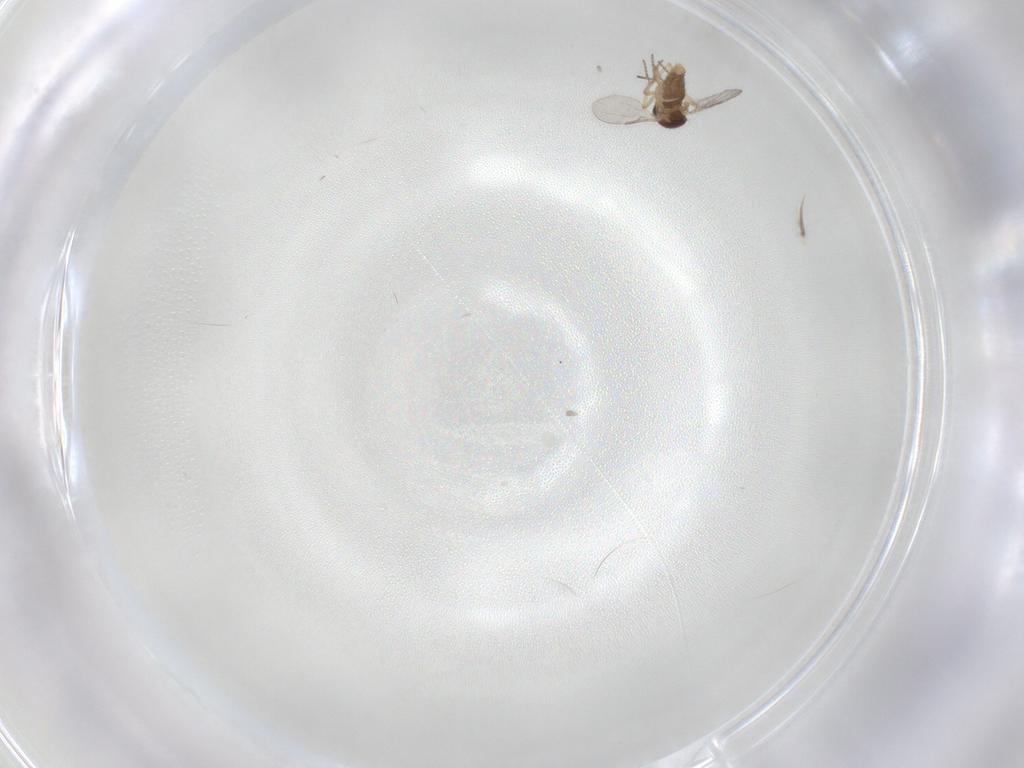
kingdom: Animalia
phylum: Arthropoda
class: Insecta
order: Diptera
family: Ceratopogonidae
